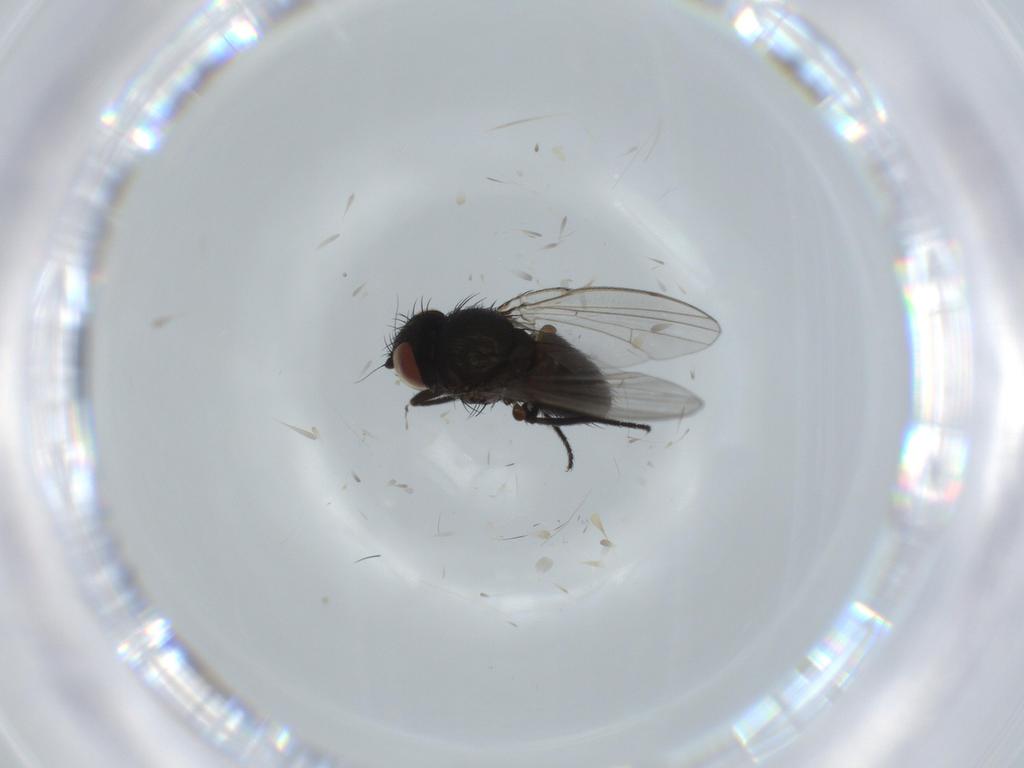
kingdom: Animalia
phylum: Arthropoda
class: Insecta
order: Diptera
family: Milichiidae
